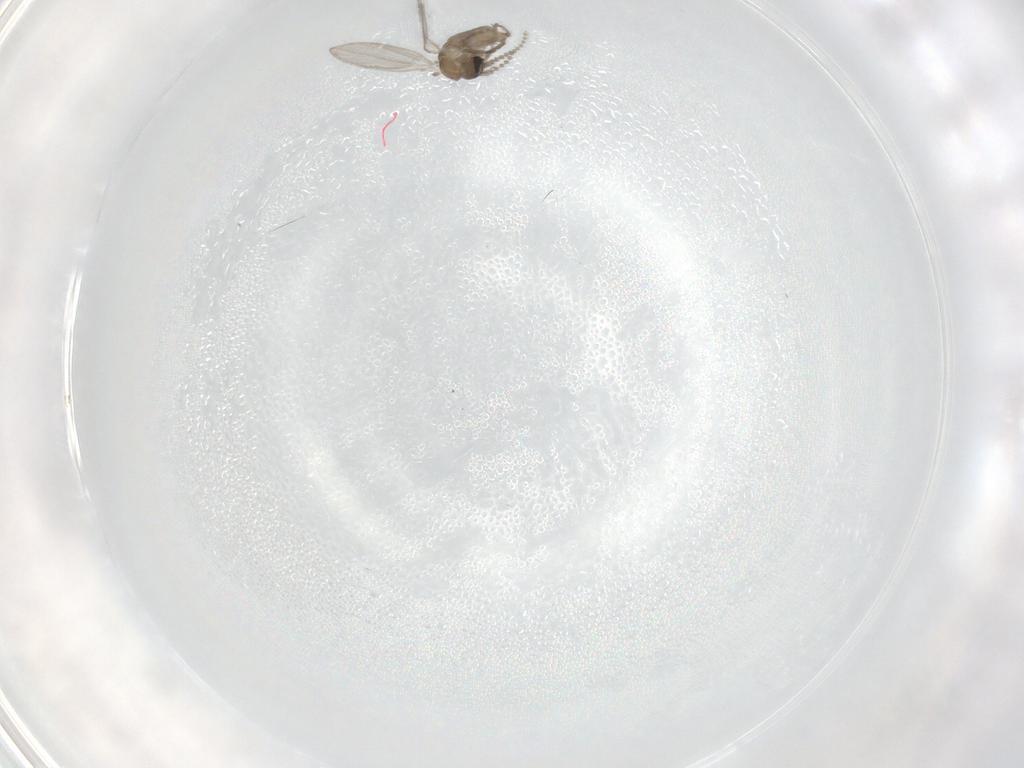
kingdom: Animalia
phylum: Arthropoda
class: Insecta
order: Diptera
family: Psychodidae
